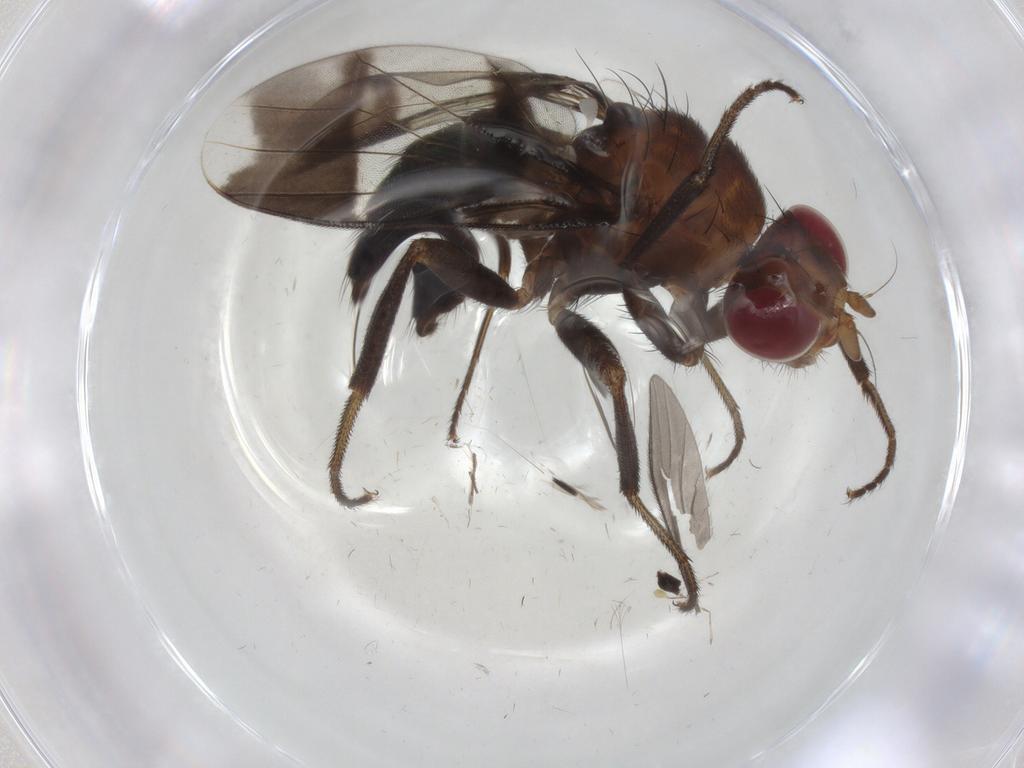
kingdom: Animalia
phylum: Arthropoda
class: Insecta
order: Diptera
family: Richardiidae
